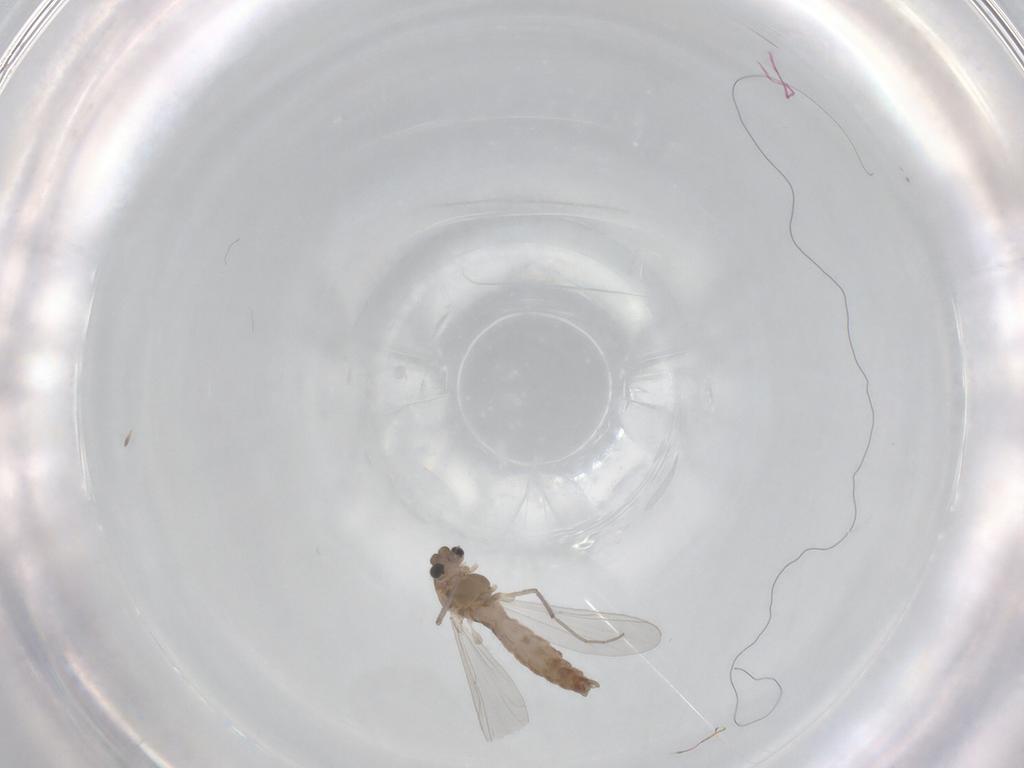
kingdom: Animalia
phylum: Arthropoda
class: Insecta
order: Diptera
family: Chironomidae
